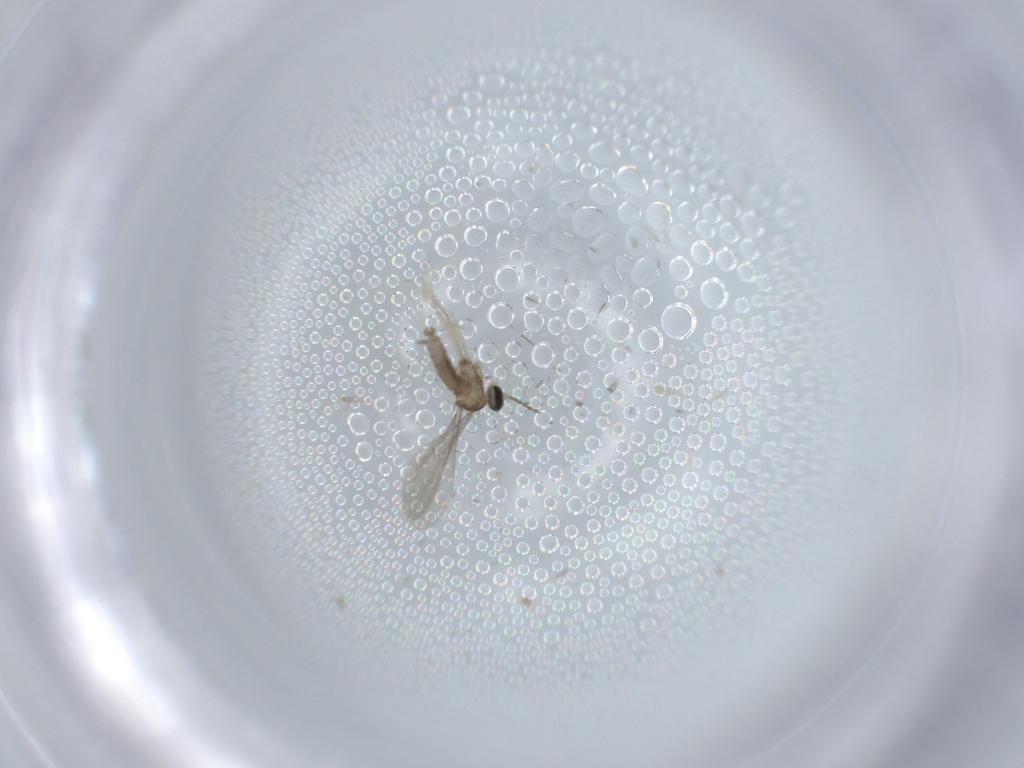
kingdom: Animalia
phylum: Arthropoda
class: Insecta
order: Diptera
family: Cecidomyiidae
